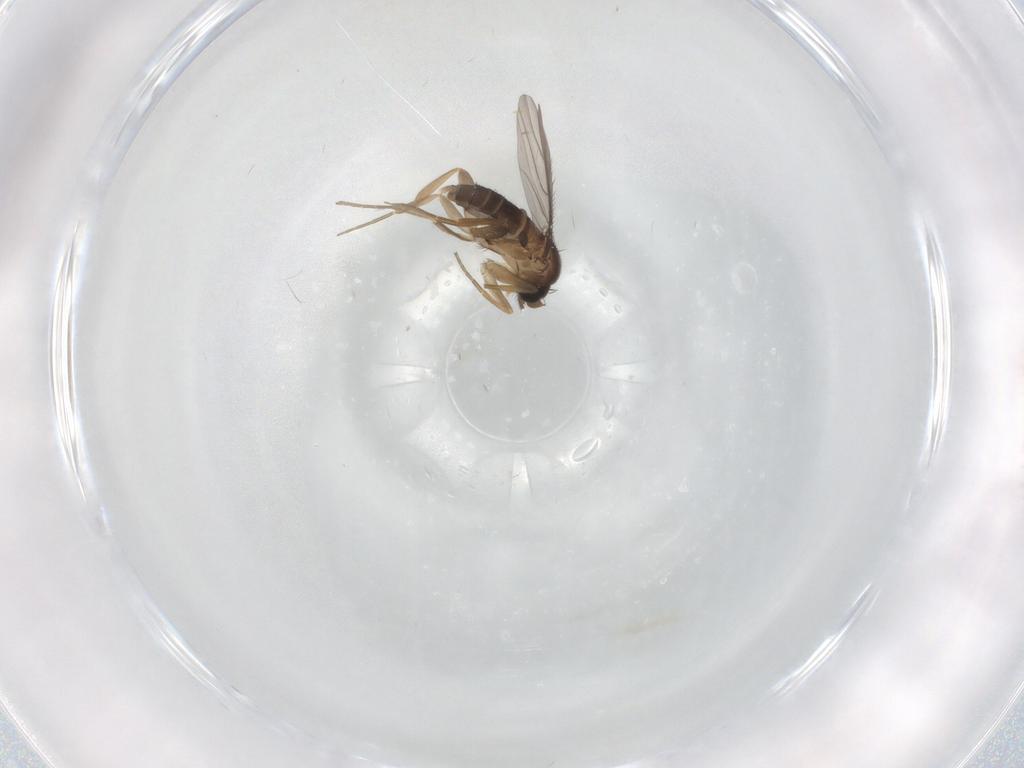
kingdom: Animalia
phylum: Arthropoda
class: Insecta
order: Diptera
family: Phoridae
